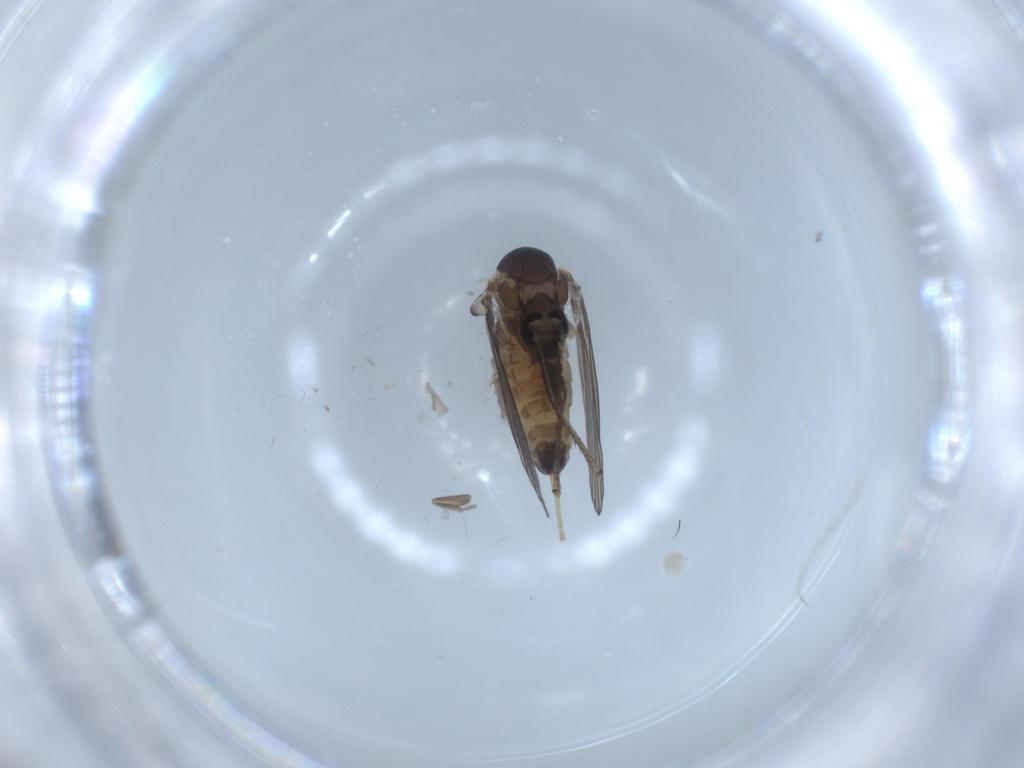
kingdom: Animalia
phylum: Arthropoda
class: Insecta
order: Diptera
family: Psychodidae
